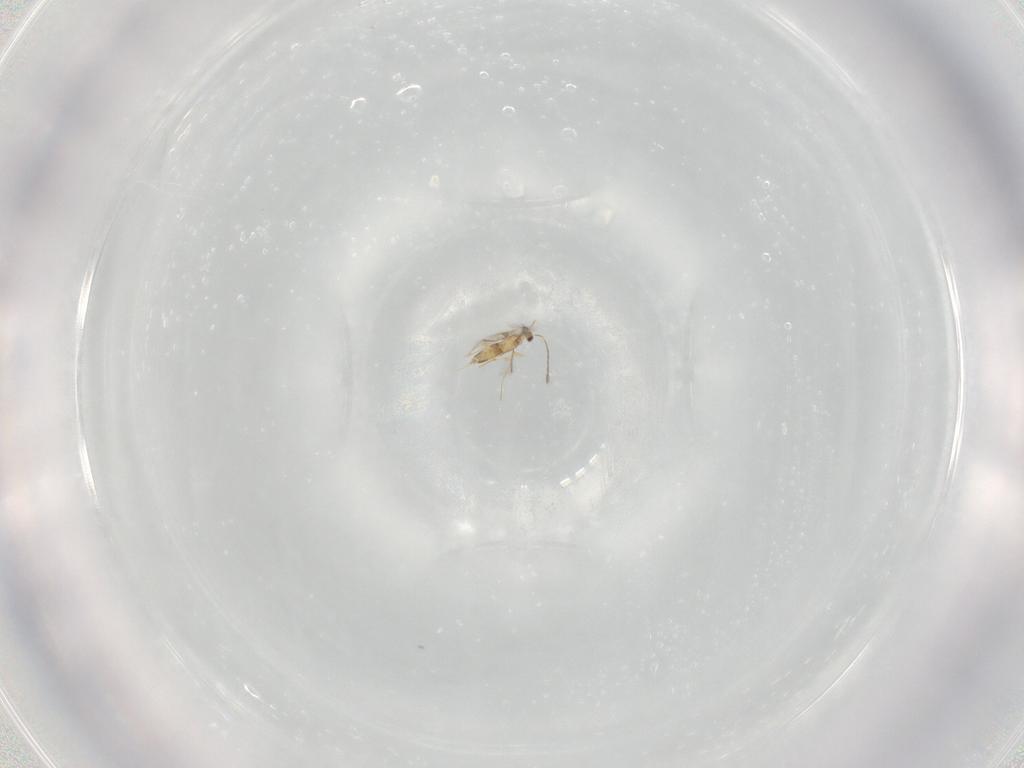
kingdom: Animalia
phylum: Arthropoda
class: Insecta
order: Hymenoptera
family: Mymaridae
